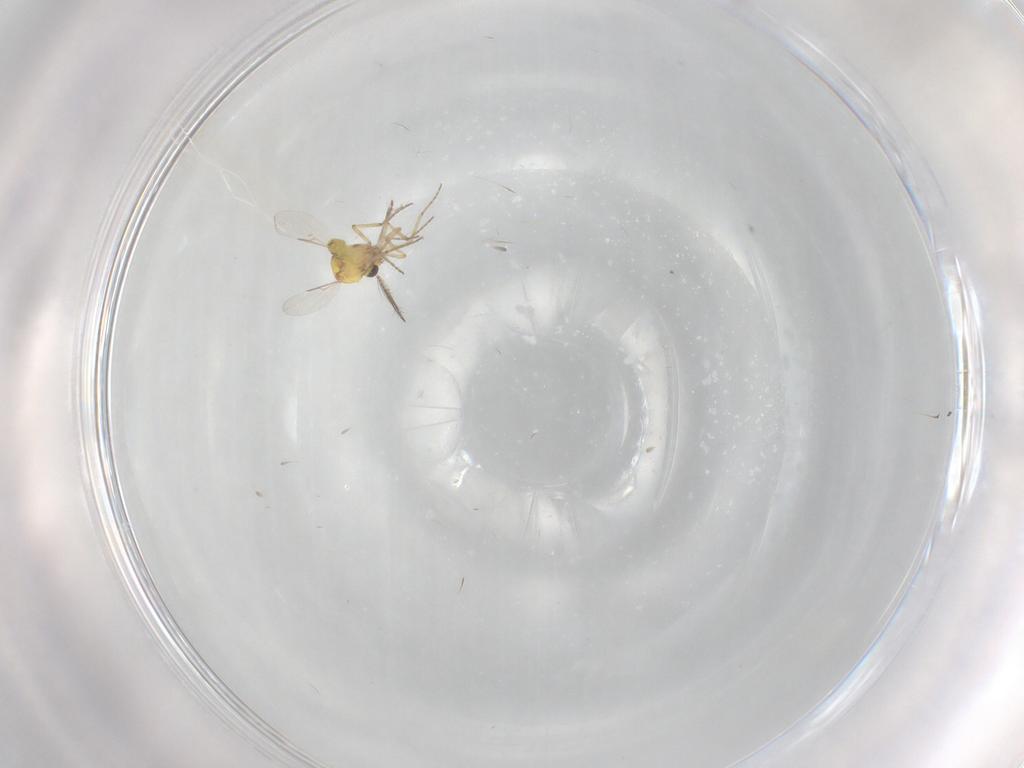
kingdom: Animalia
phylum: Arthropoda
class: Insecta
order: Diptera
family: Ceratopogonidae
